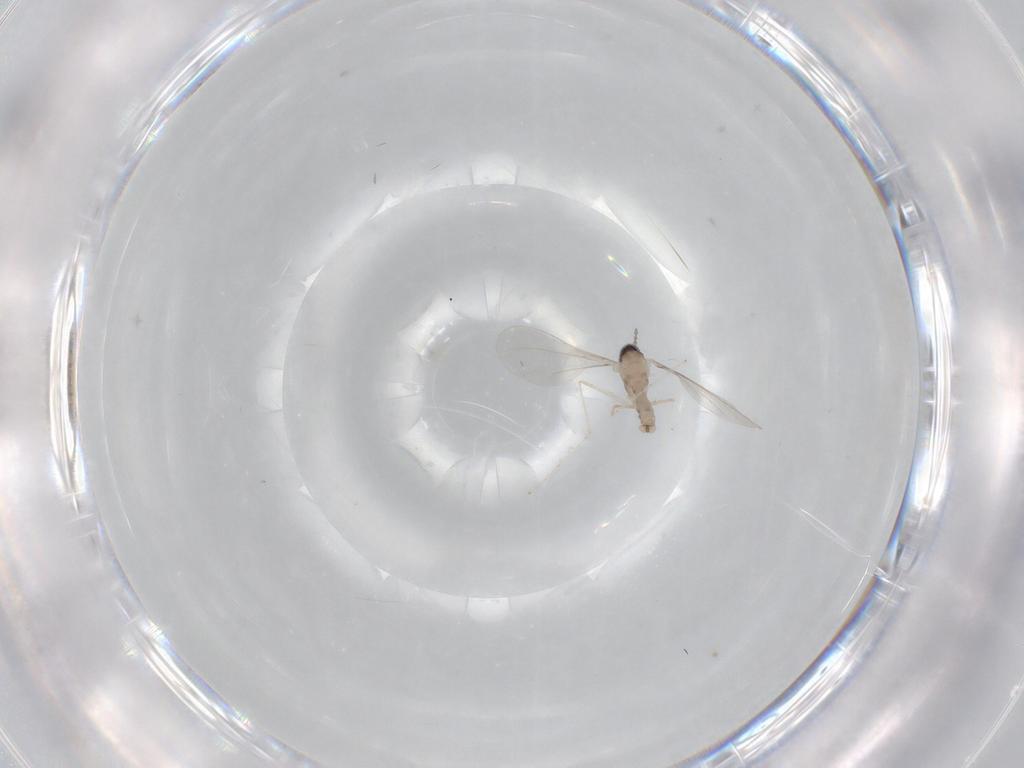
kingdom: Animalia
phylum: Arthropoda
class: Insecta
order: Diptera
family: Cecidomyiidae
